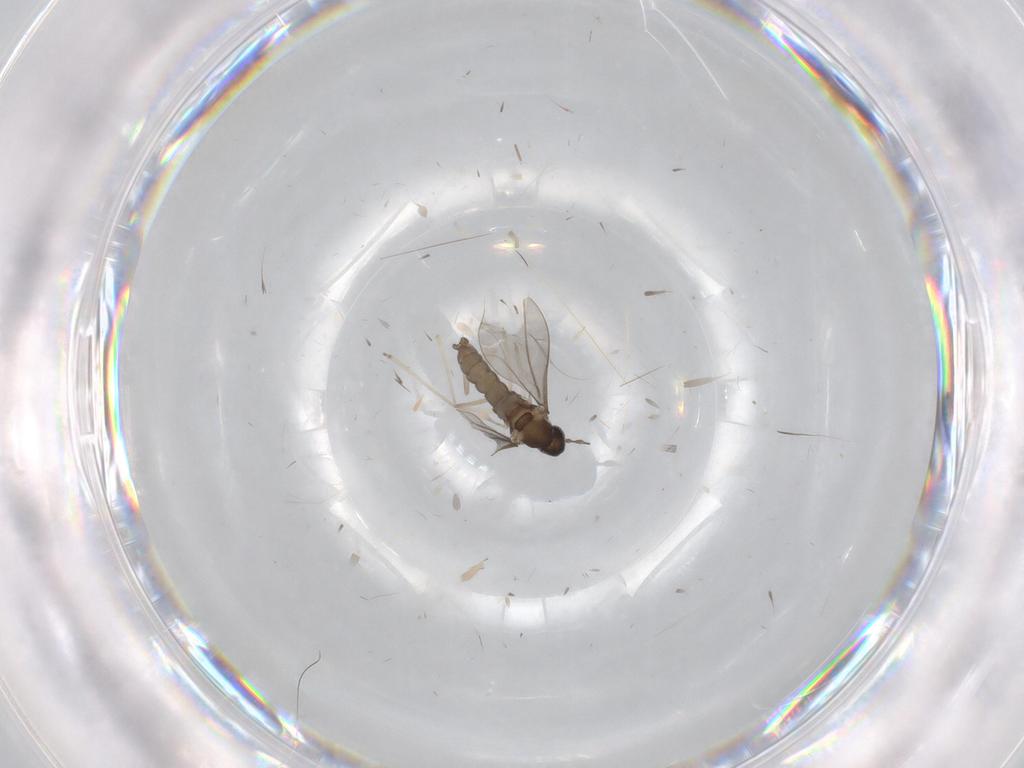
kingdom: Animalia
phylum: Arthropoda
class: Insecta
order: Diptera
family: Cecidomyiidae
